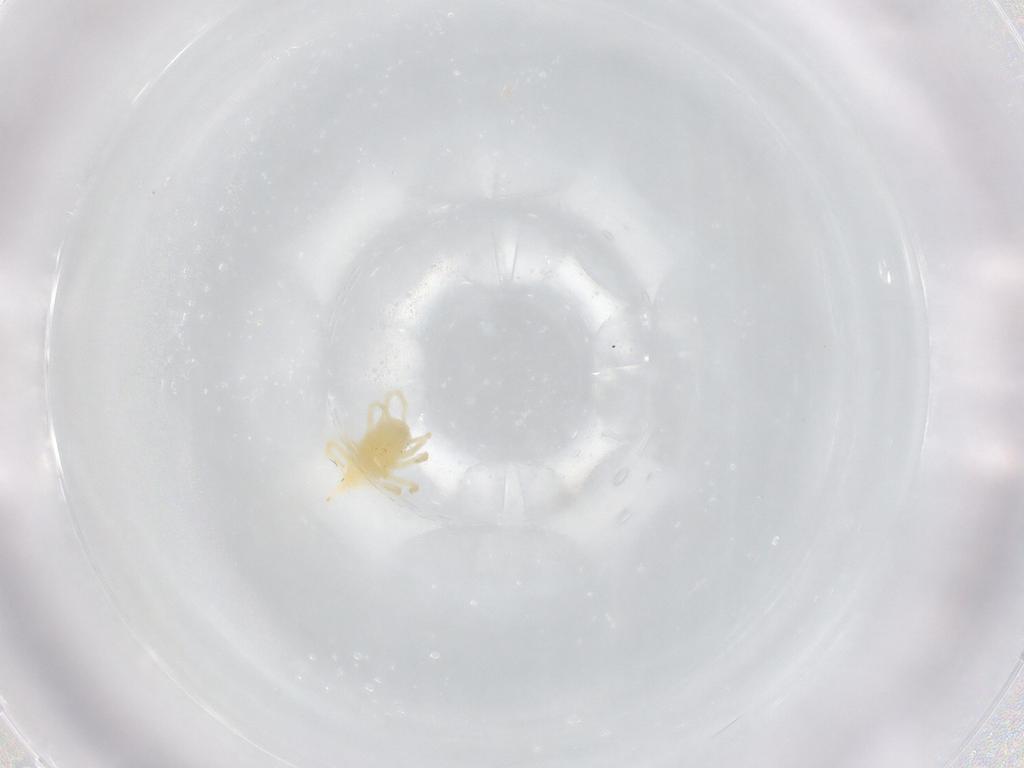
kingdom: Animalia
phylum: Arthropoda
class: Arachnida
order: Trombidiformes
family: Bdellidae
